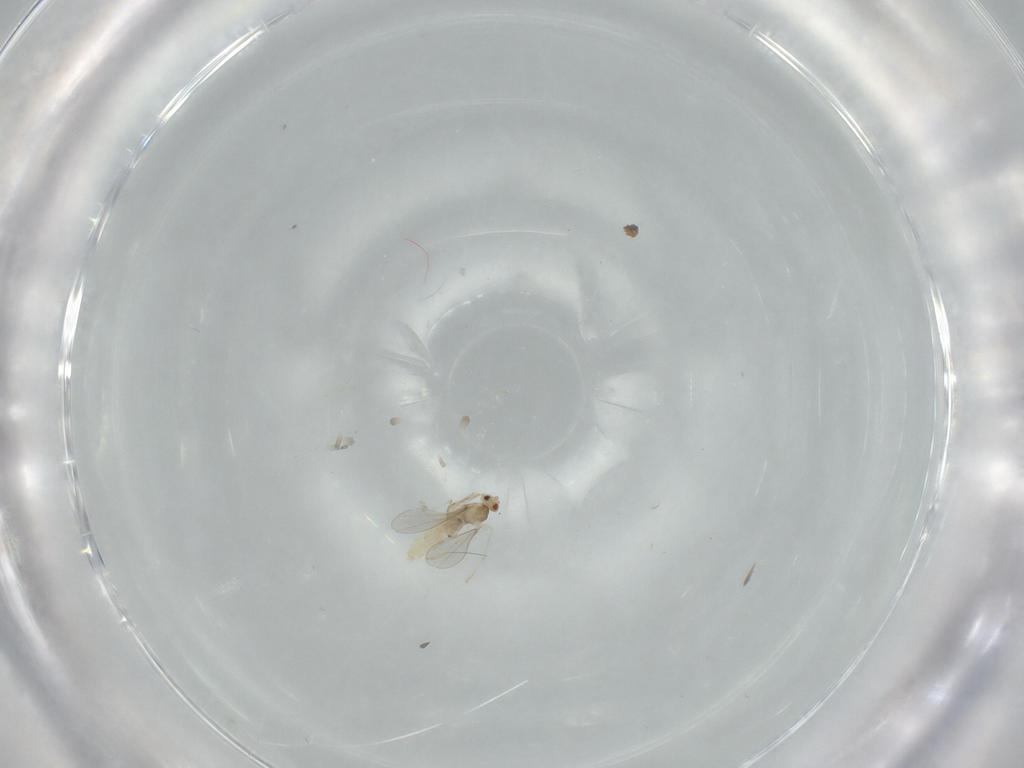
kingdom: Animalia
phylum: Arthropoda
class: Insecta
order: Diptera
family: Cecidomyiidae
